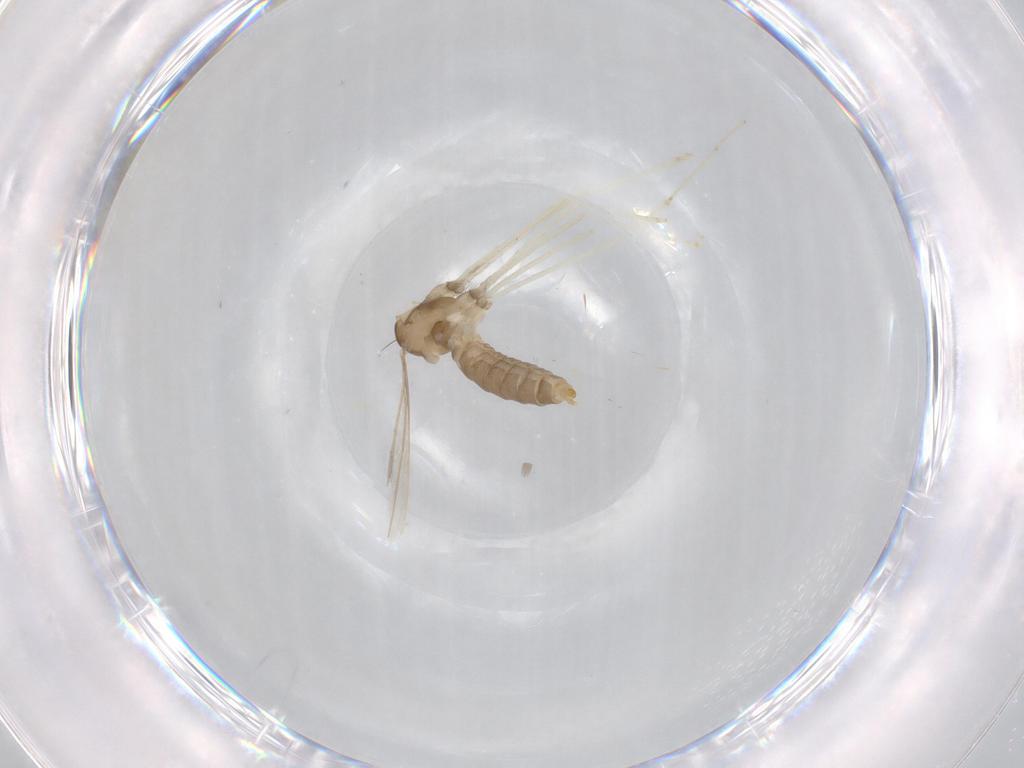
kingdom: Animalia
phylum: Arthropoda
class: Insecta
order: Diptera
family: Cecidomyiidae
